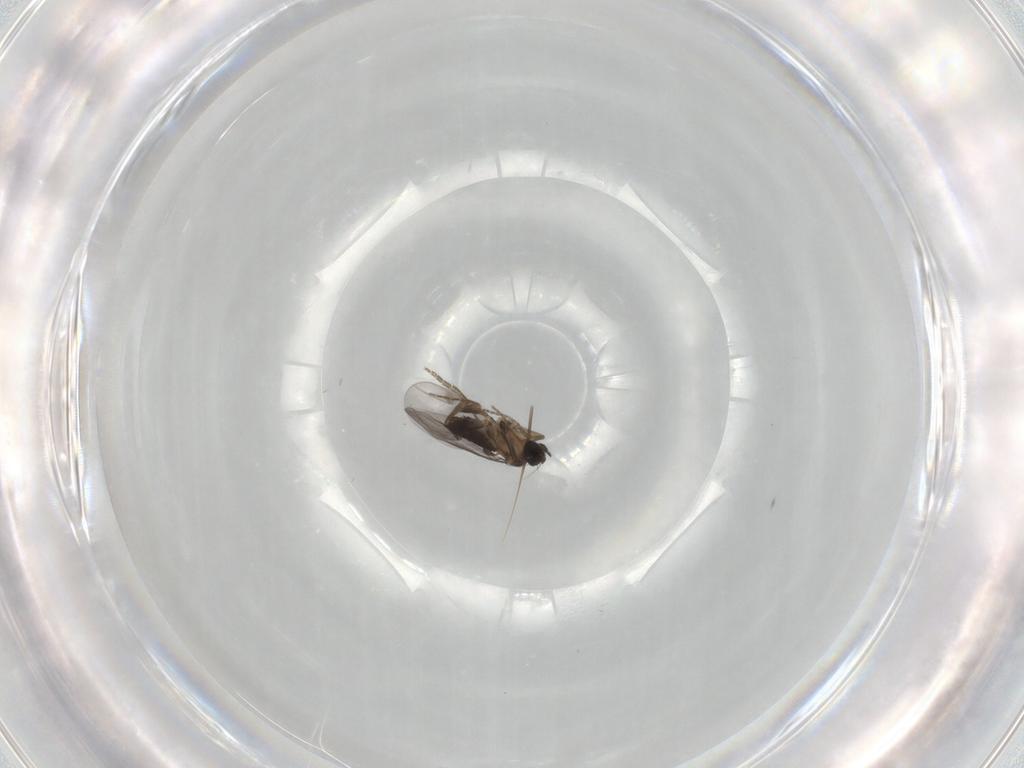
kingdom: Animalia
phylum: Arthropoda
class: Insecta
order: Diptera
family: Phoridae
